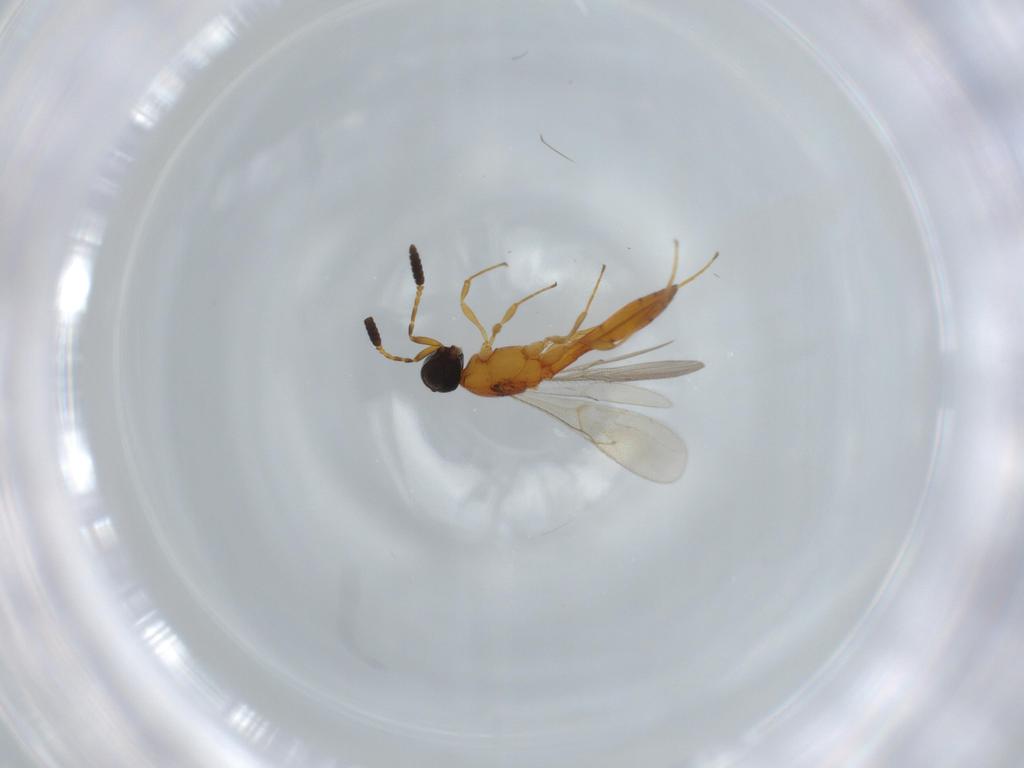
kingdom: Animalia
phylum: Arthropoda
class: Insecta
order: Hymenoptera
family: Scelionidae
